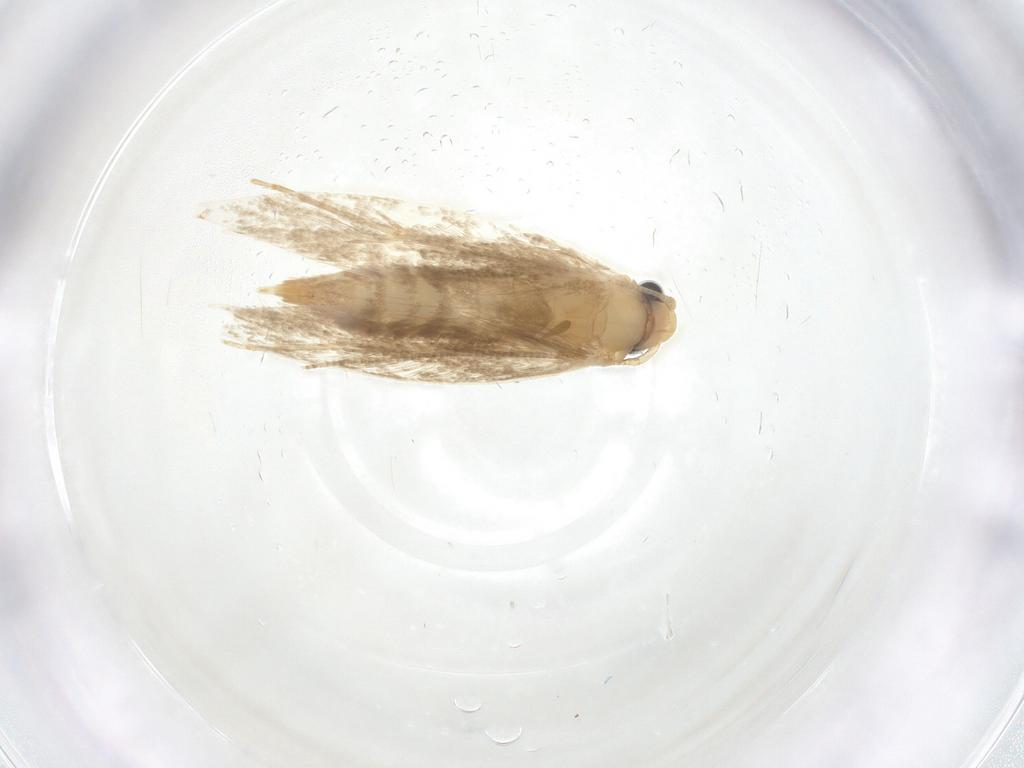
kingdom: Animalia
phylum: Arthropoda
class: Insecta
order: Lepidoptera
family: Tineidae
